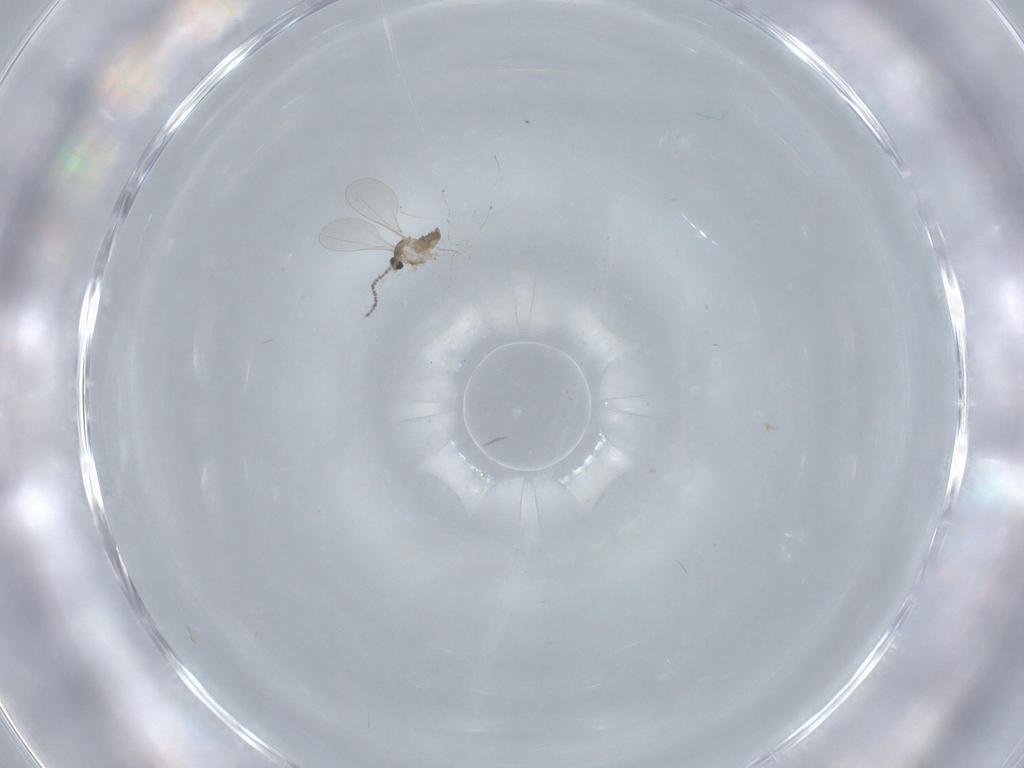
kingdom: Animalia
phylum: Arthropoda
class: Insecta
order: Diptera
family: Cecidomyiidae
